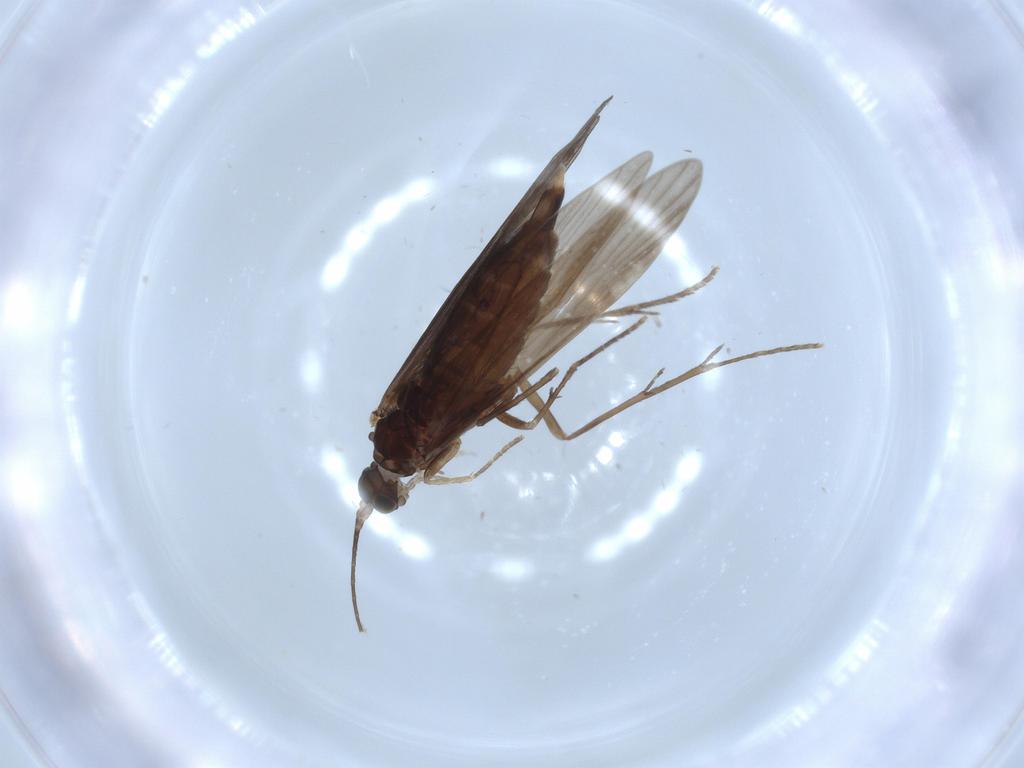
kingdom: Animalia
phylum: Arthropoda
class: Insecta
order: Trichoptera
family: Xiphocentronidae
